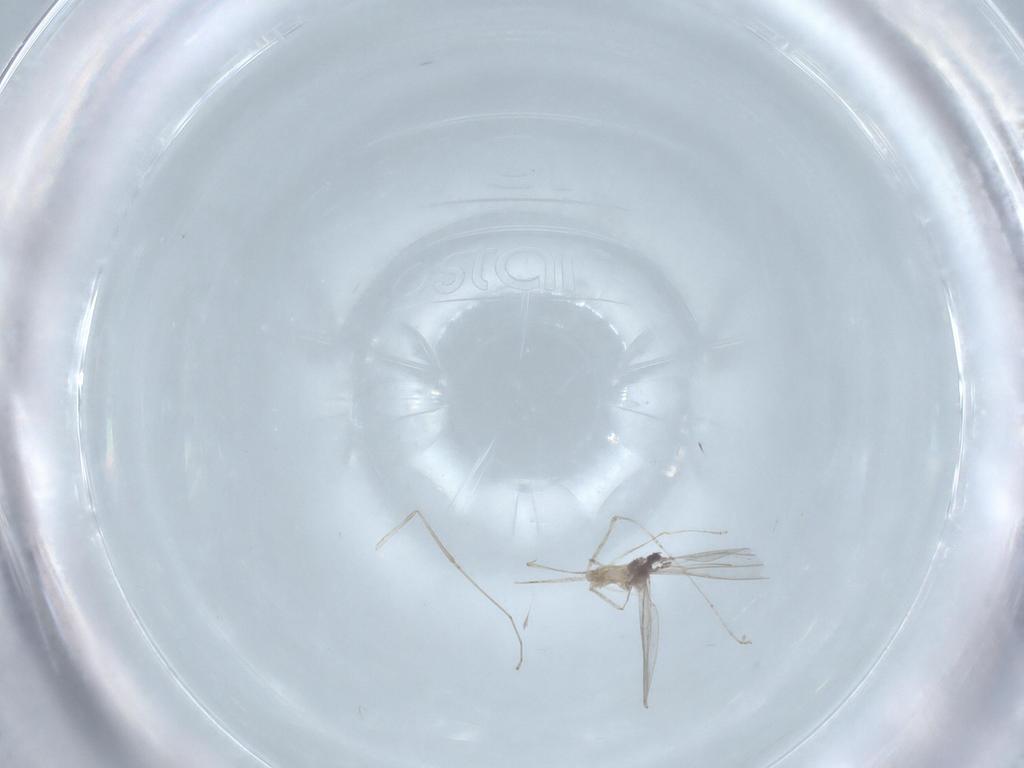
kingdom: Animalia
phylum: Arthropoda
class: Insecta
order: Diptera
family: Cecidomyiidae
